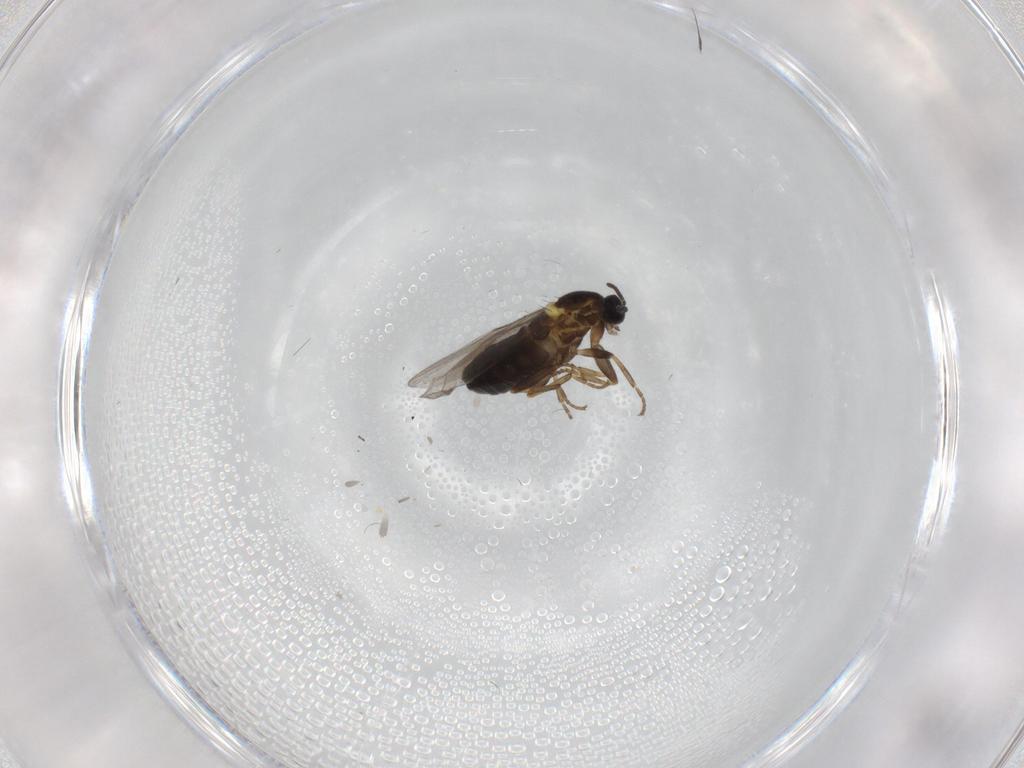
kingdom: Animalia
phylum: Arthropoda
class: Insecta
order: Diptera
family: Scatopsidae
